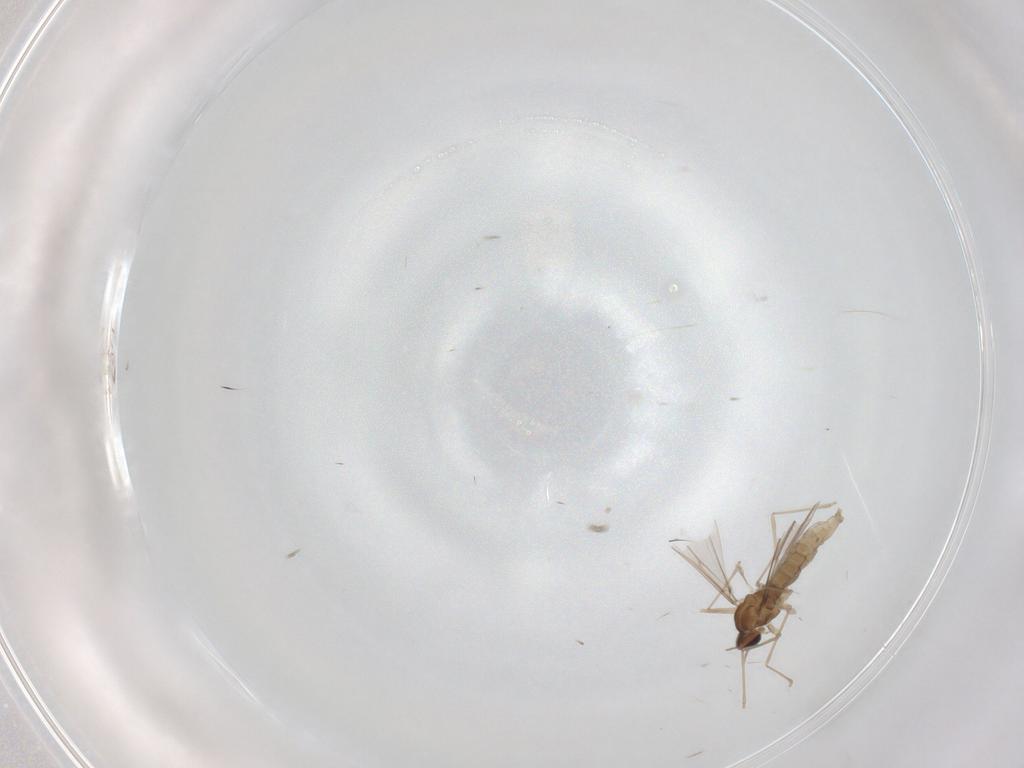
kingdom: Animalia
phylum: Arthropoda
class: Insecta
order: Diptera
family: Cecidomyiidae
